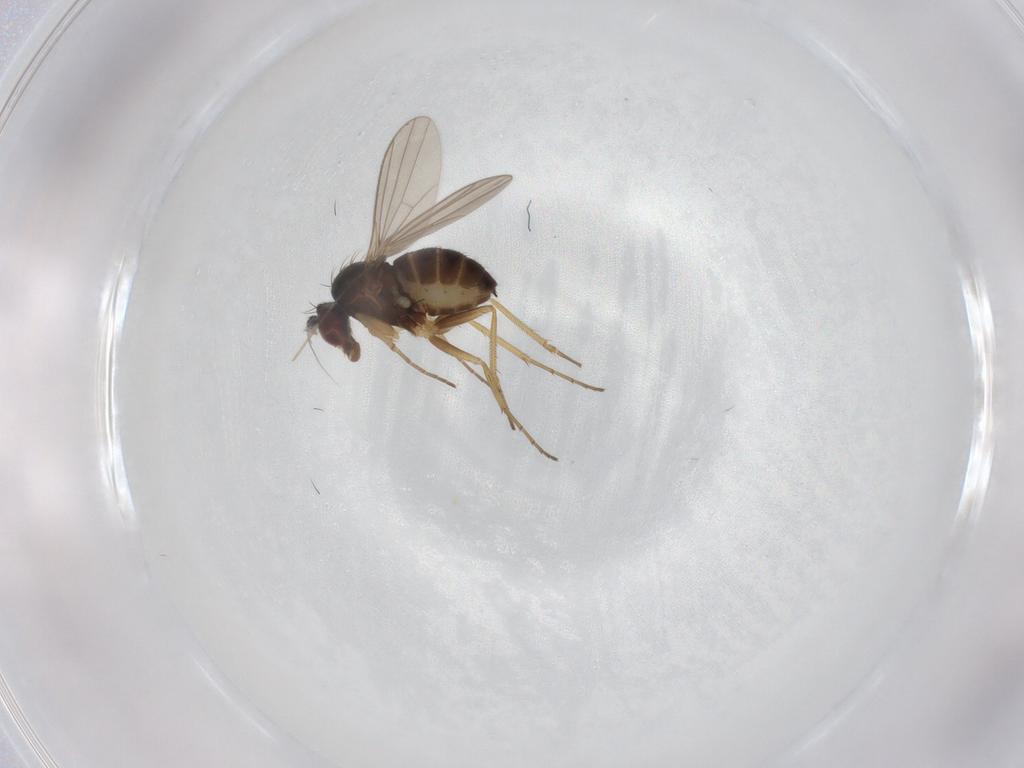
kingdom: Animalia
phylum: Arthropoda
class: Insecta
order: Diptera
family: Dolichopodidae
